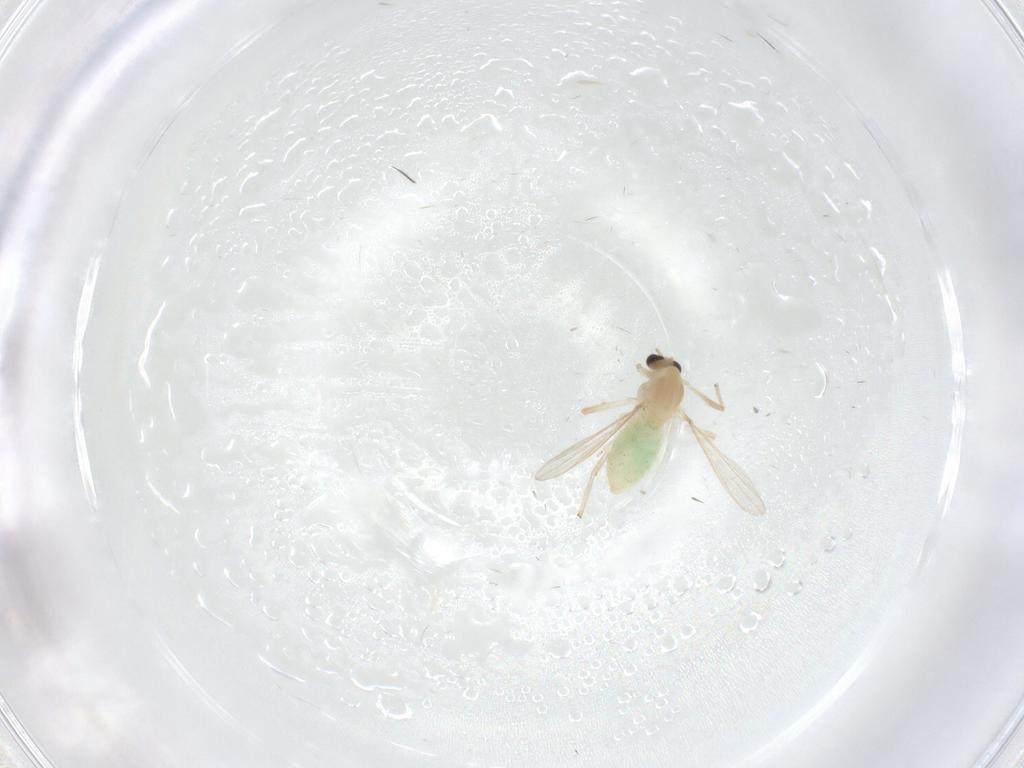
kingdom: Animalia
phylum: Arthropoda
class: Insecta
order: Diptera
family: Chironomidae
